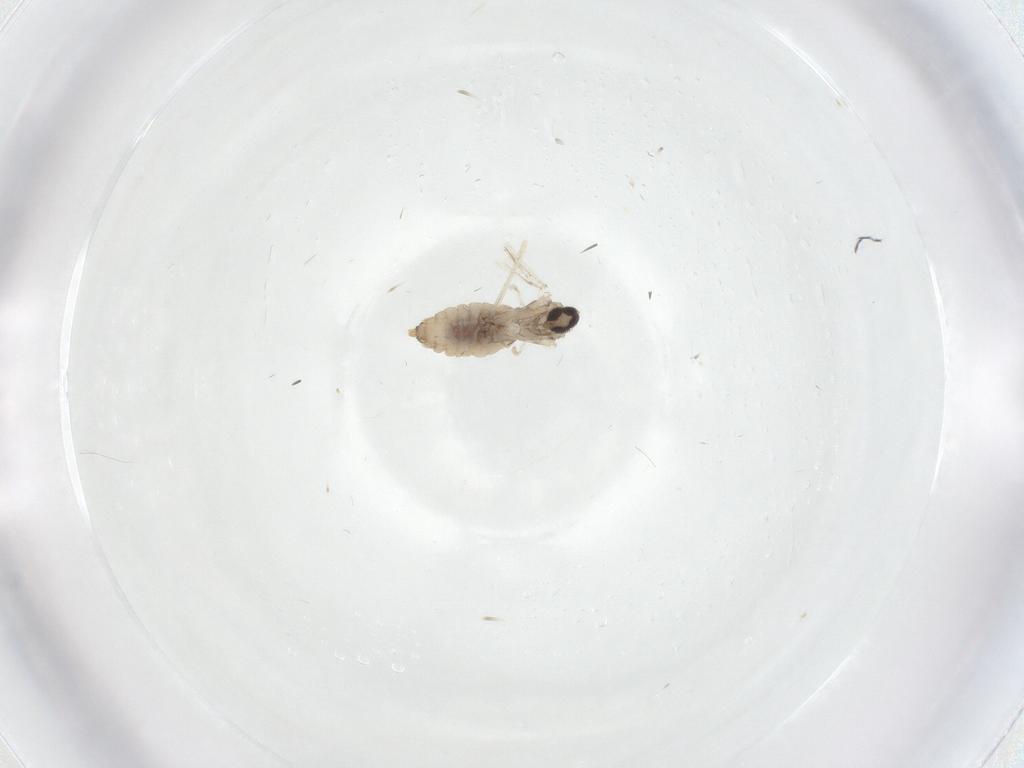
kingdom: Animalia
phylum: Arthropoda
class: Insecta
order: Diptera
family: Cecidomyiidae
